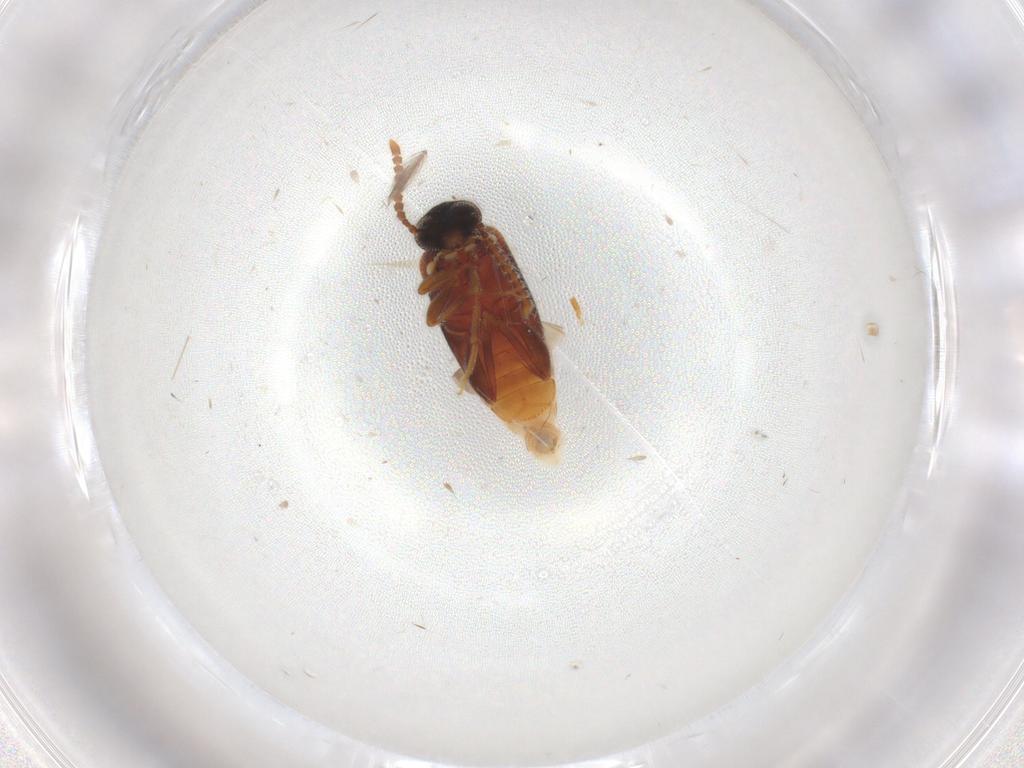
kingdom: Animalia
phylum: Arthropoda
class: Insecta
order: Coleoptera
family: Aderidae
